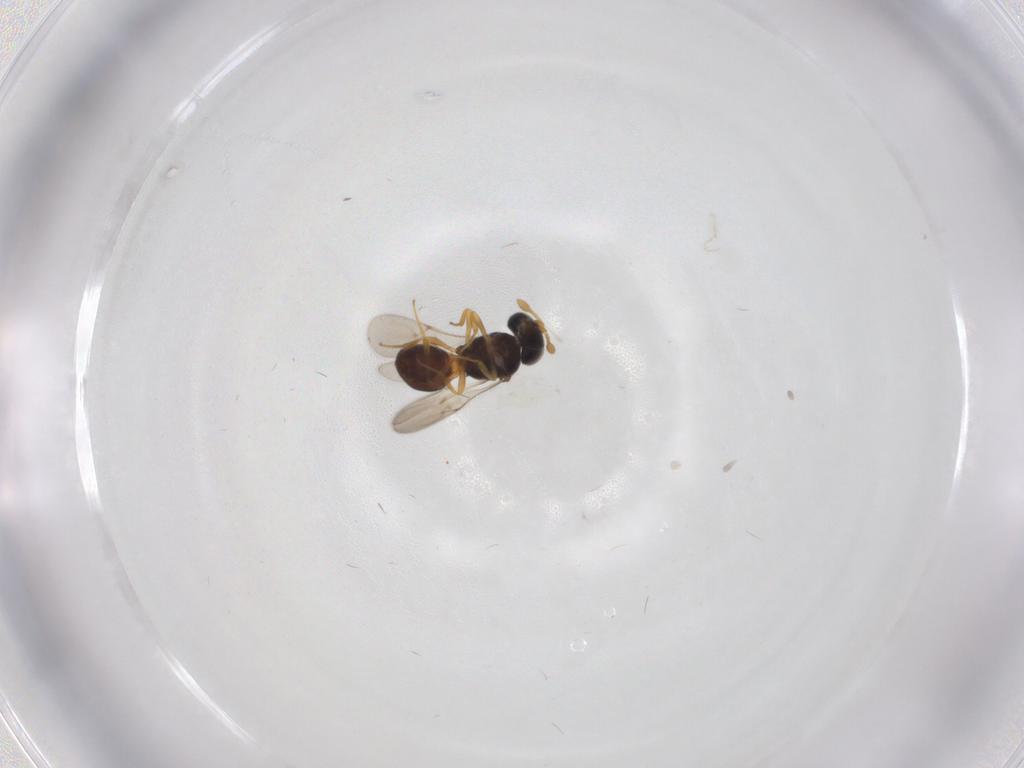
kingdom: Animalia
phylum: Arthropoda
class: Insecta
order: Hymenoptera
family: Scelionidae
